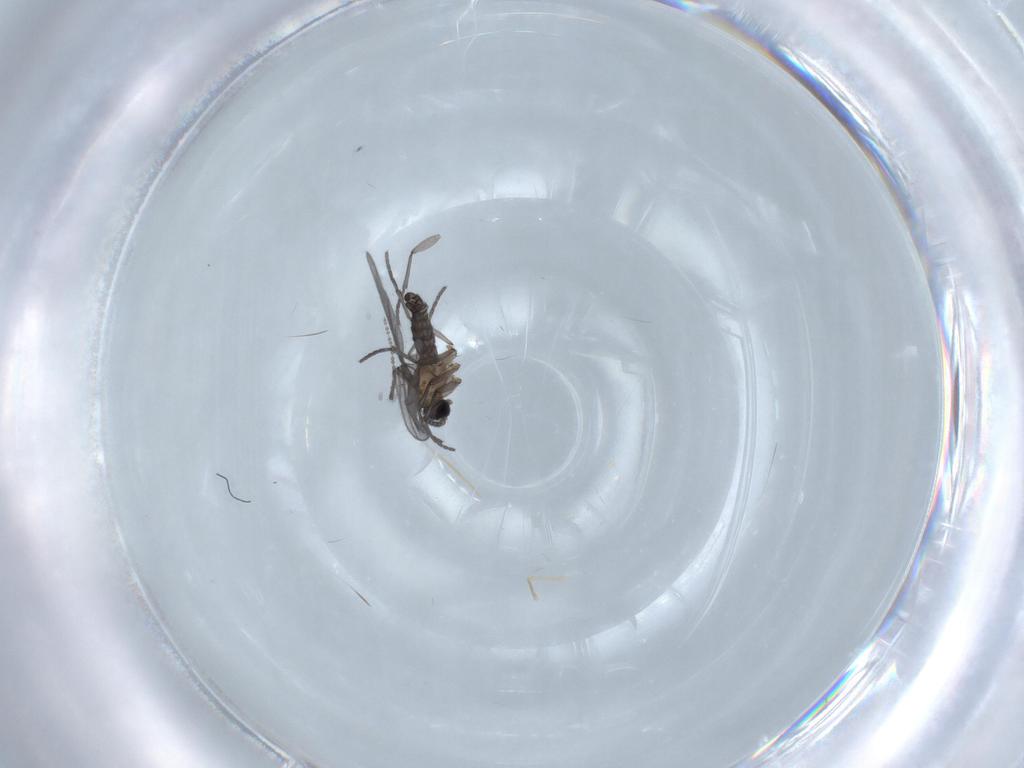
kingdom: Animalia
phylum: Arthropoda
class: Insecta
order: Diptera
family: Sciaridae
